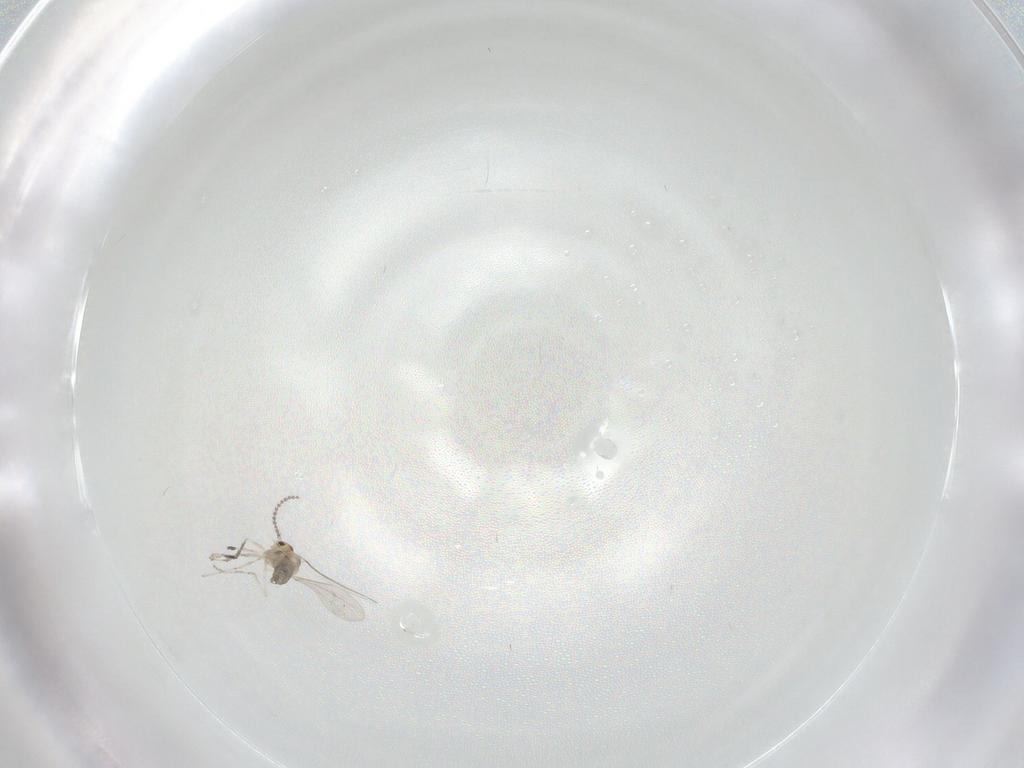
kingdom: Animalia
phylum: Arthropoda
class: Insecta
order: Diptera
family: Cecidomyiidae
